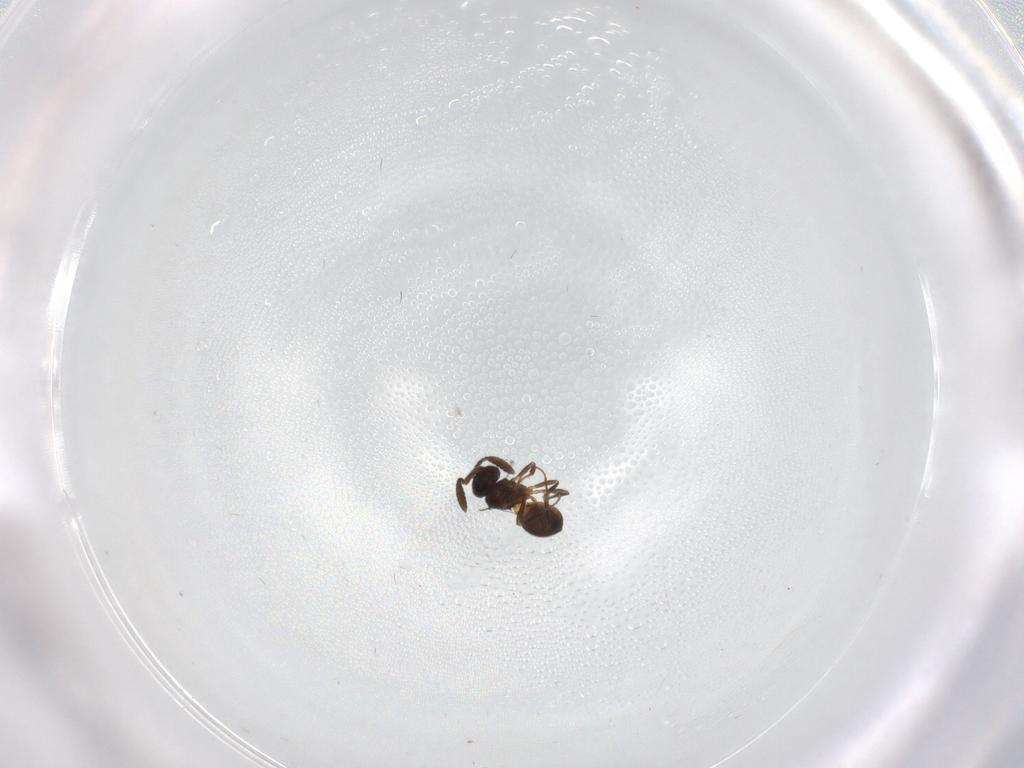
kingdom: Animalia
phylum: Arthropoda
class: Insecta
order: Hymenoptera
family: Scelionidae
